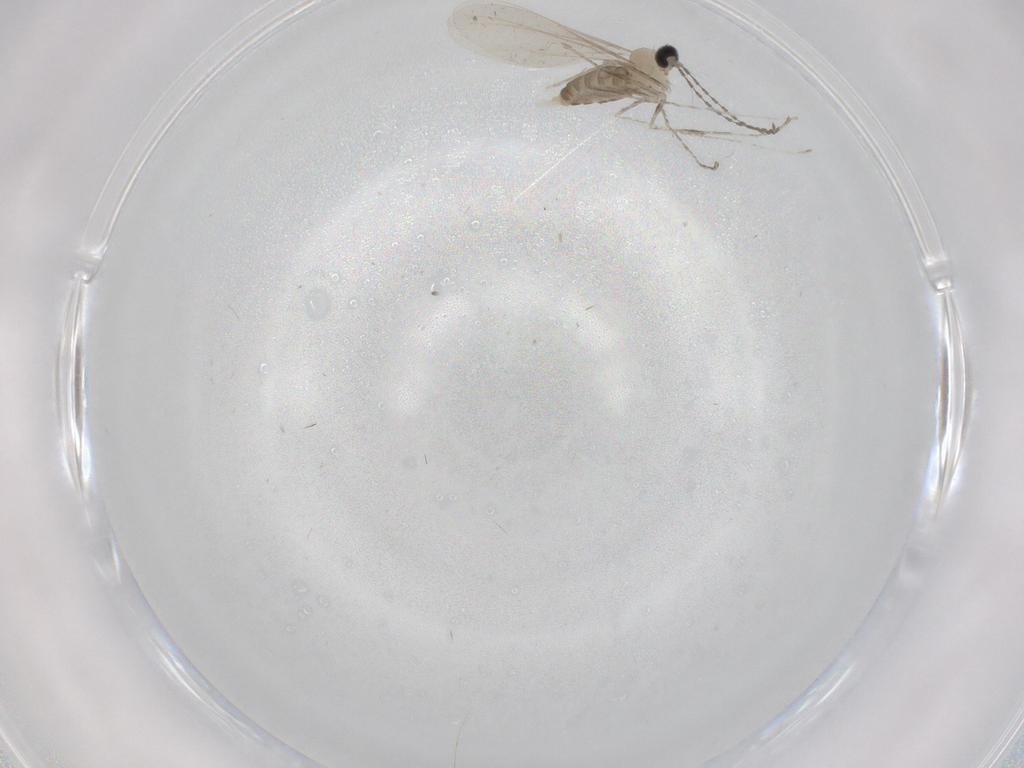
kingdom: Animalia
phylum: Arthropoda
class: Insecta
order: Diptera
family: Cecidomyiidae
